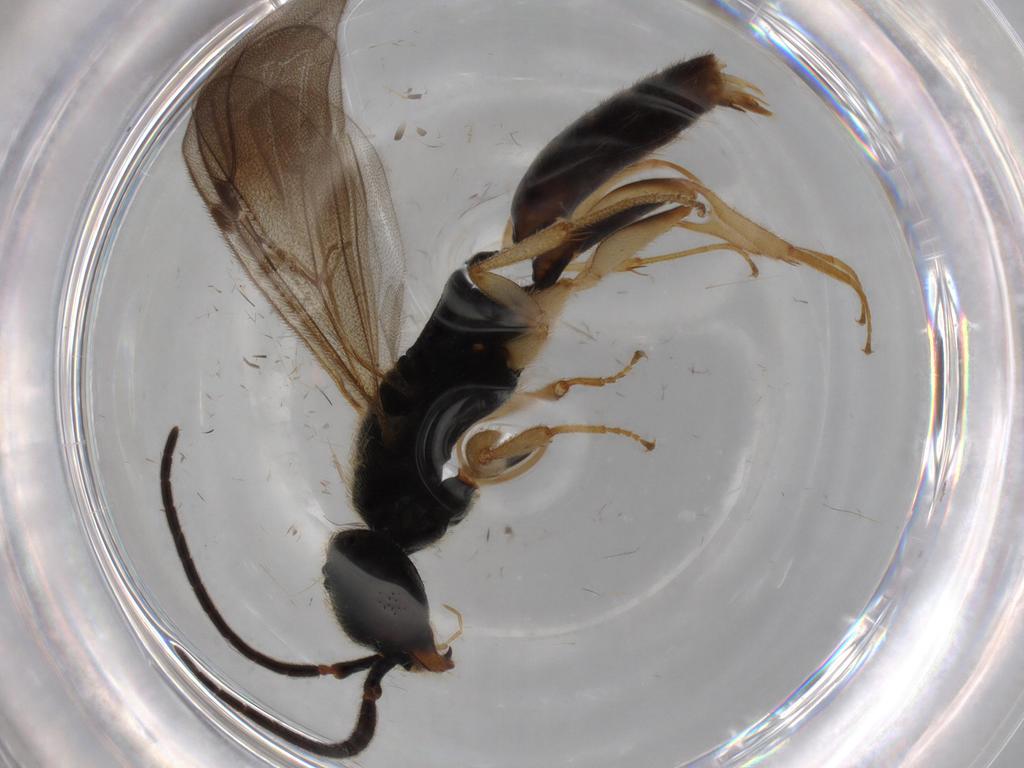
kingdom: Animalia
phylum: Arthropoda
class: Insecta
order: Hymenoptera
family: Bethylidae
